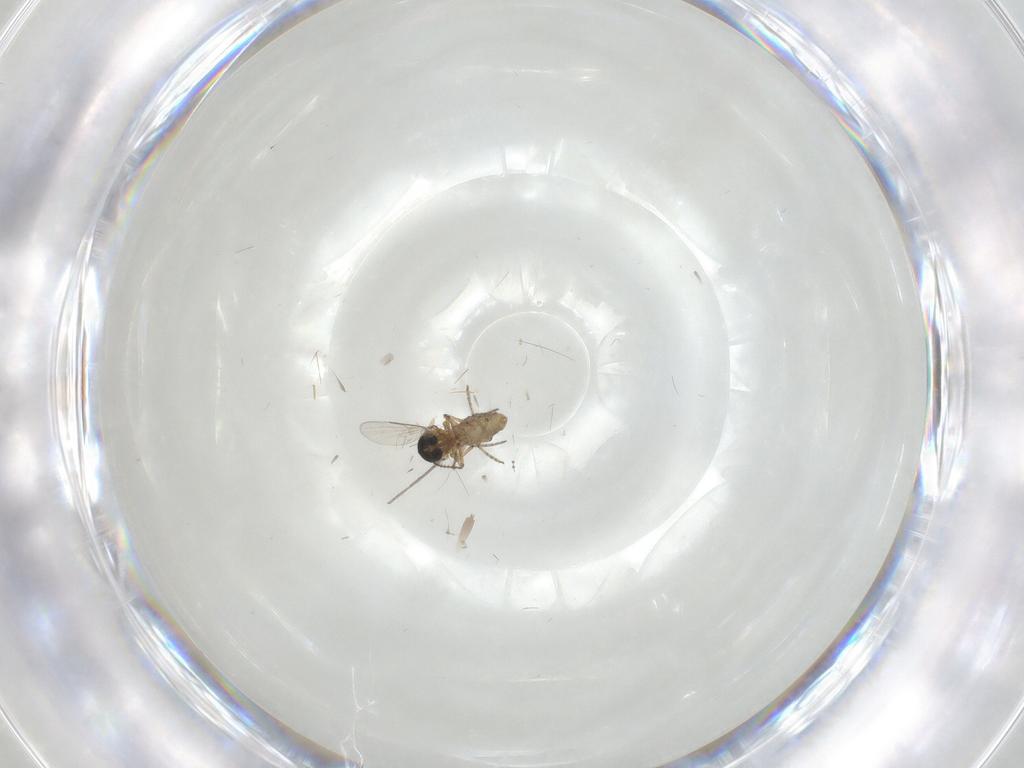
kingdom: Animalia
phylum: Arthropoda
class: Insecta
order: Diptera
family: Ceratopogonidae
